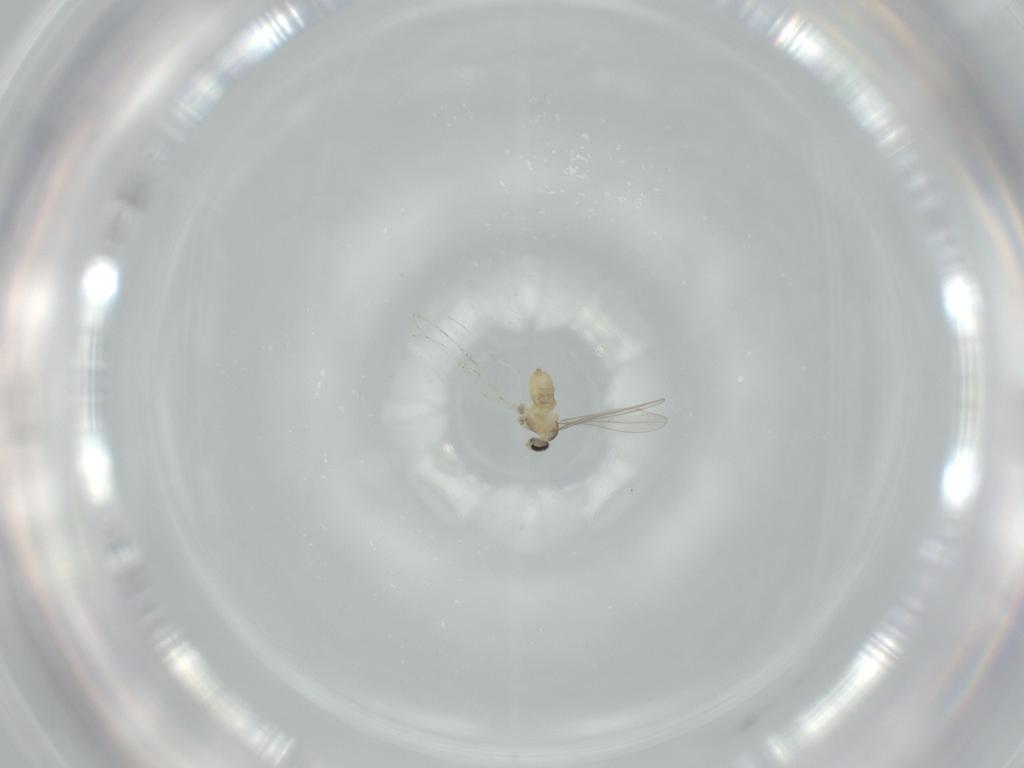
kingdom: Animalia
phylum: Arthropoda
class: Insecta
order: Diptera
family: Cecidomyiidae
